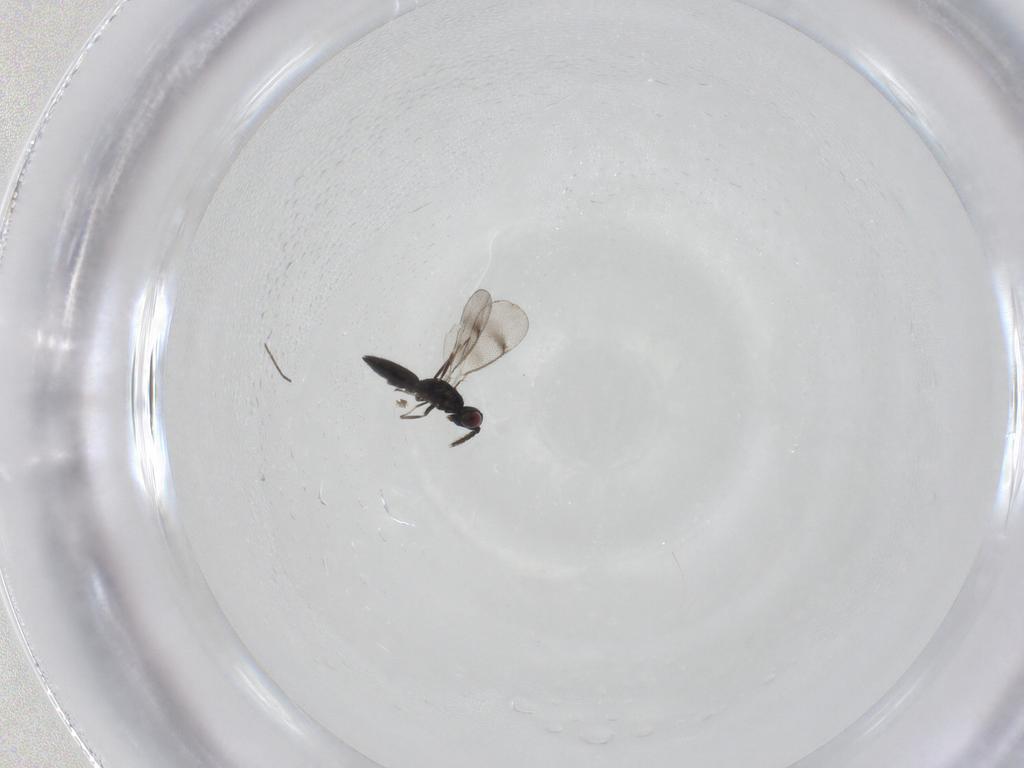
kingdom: Animalia
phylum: Arthropoda
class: Insecta
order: Hymenoptera
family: Eulophidae
